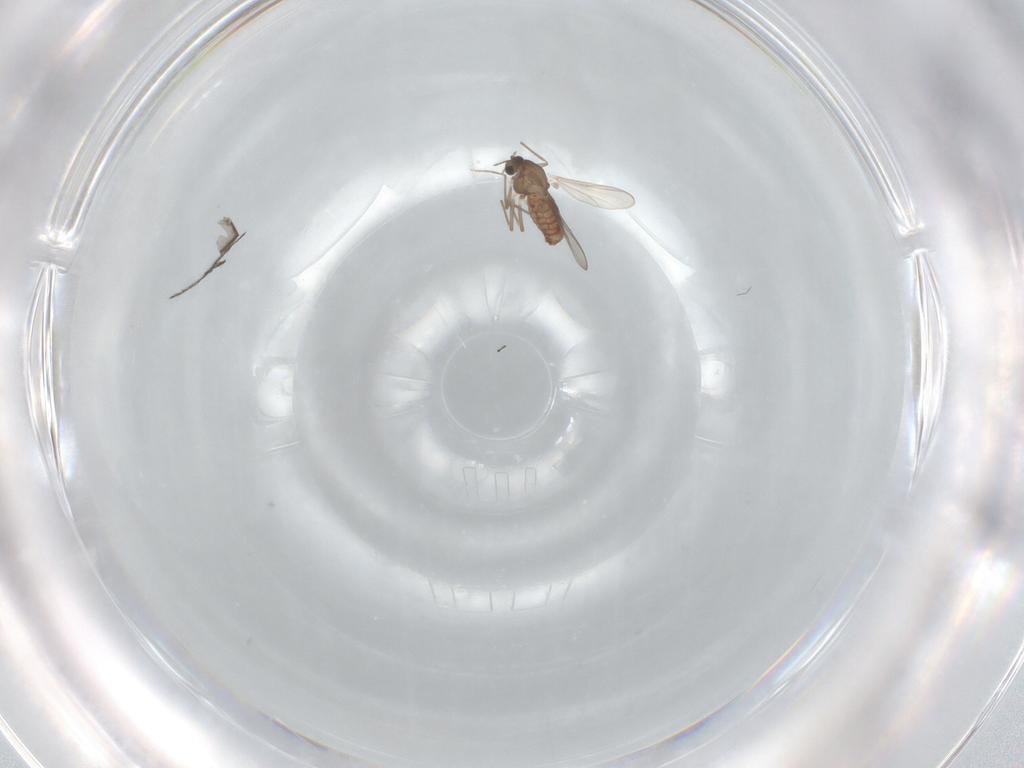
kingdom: Animalia
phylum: Arthropoda
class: Insecta
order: Diptera
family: Chironomidae
